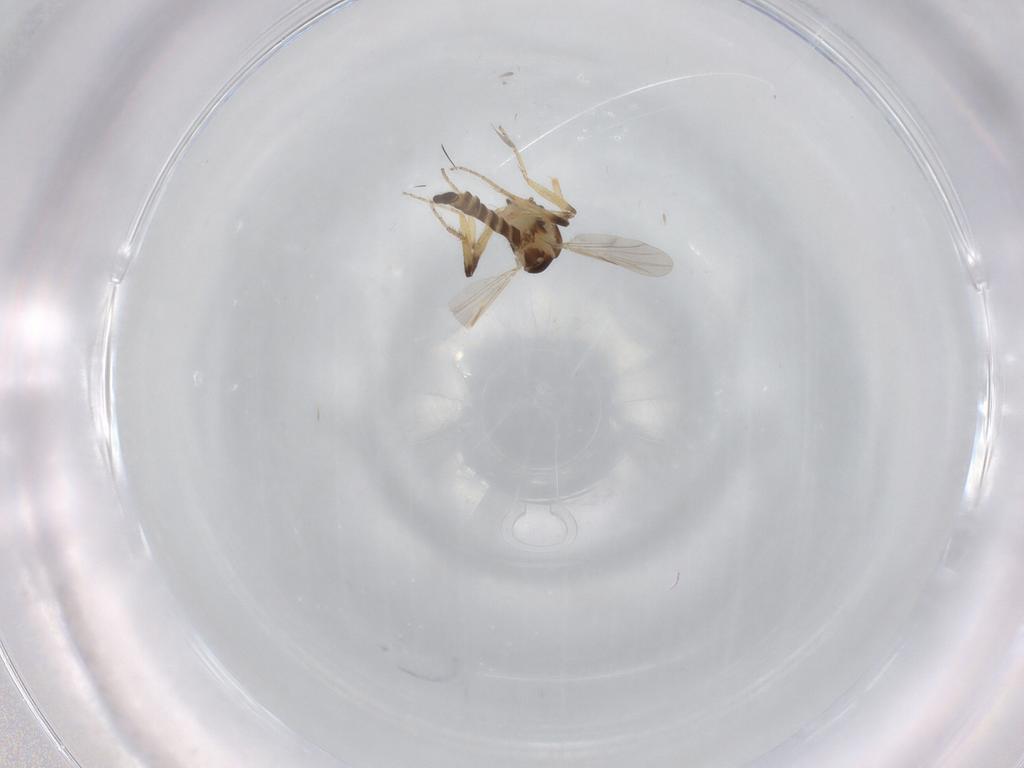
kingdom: Animalia
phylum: Arthropoda
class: Insecta
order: Diptera
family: Ceratopogonidae
